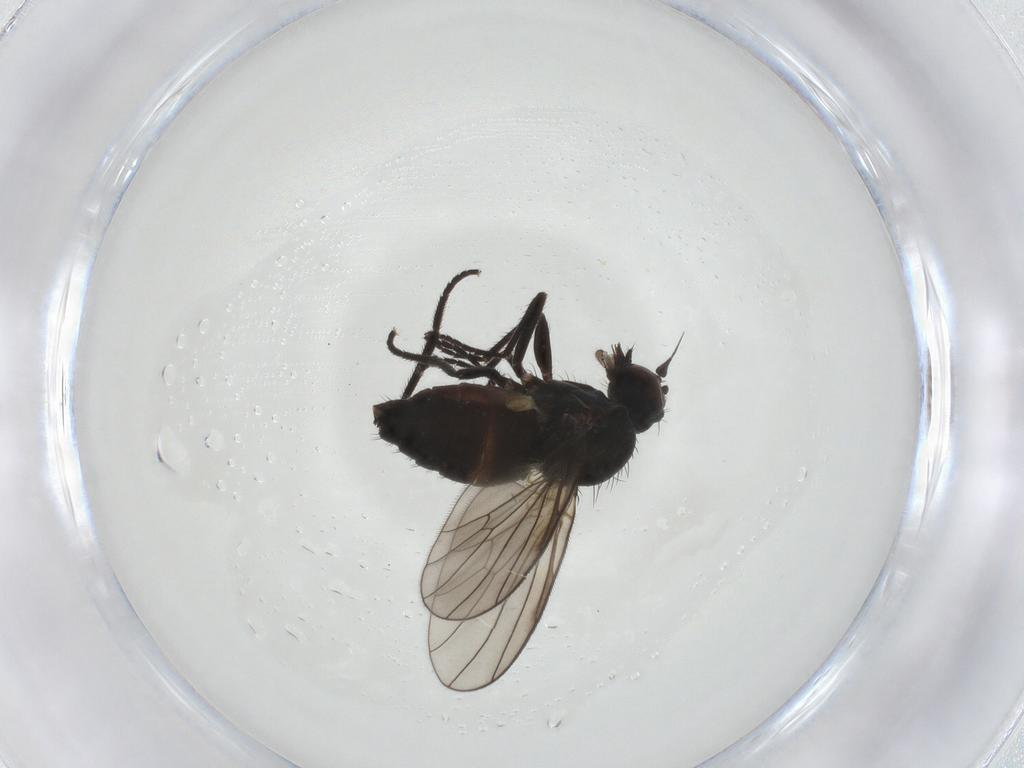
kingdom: Animalia
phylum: Arthropoda
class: Insecta
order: Diptera
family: Dolichopodidae
